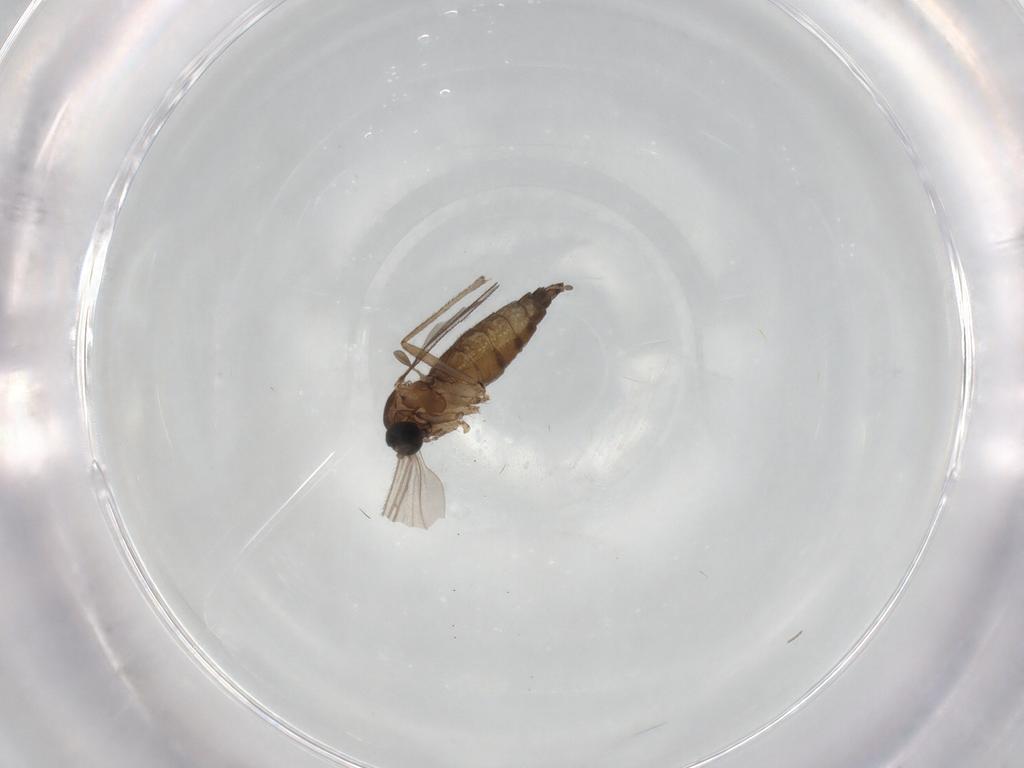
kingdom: Animalia
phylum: Arthropoda
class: Insecta
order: Diptera
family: Sciaridae
